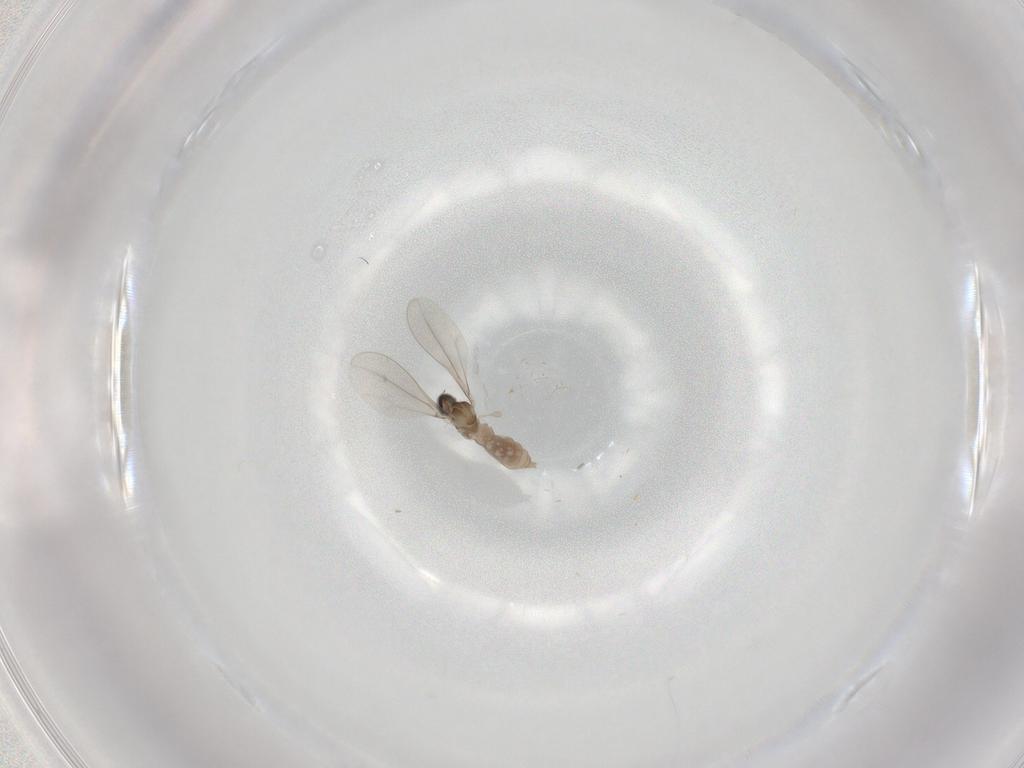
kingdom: Animalia
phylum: Arthropoda
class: Insecta
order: Diptera
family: Cecidomyiidae
